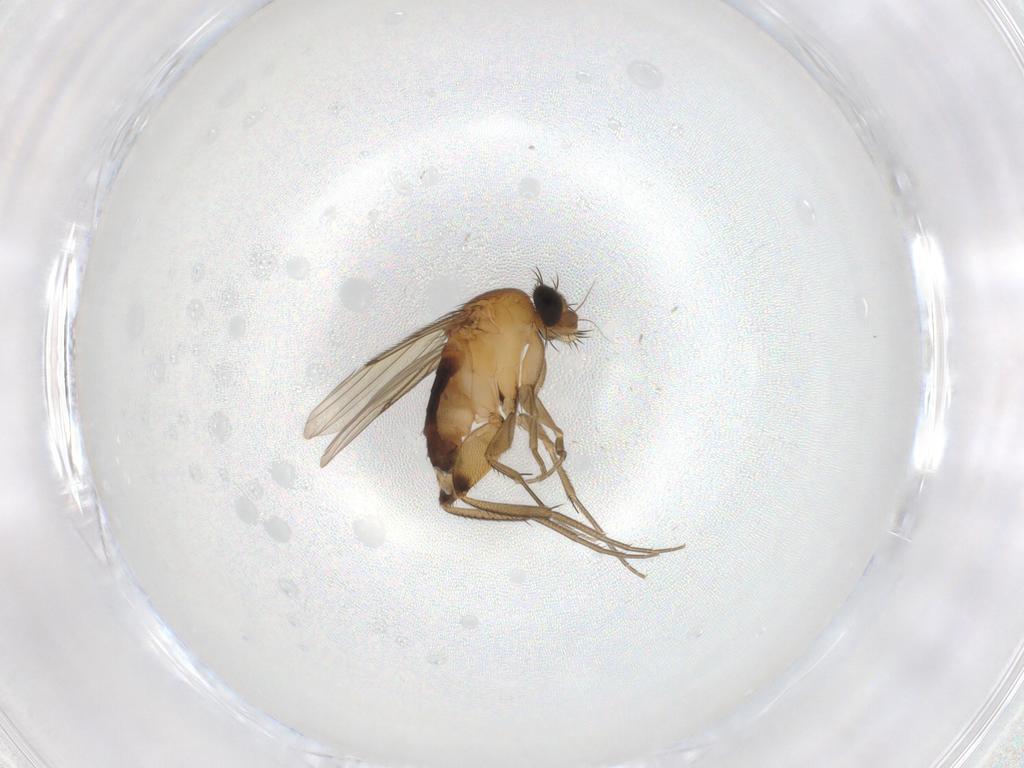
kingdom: Animalia
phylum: Arthropoda
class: Insecta
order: Diptera
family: Phoridae
